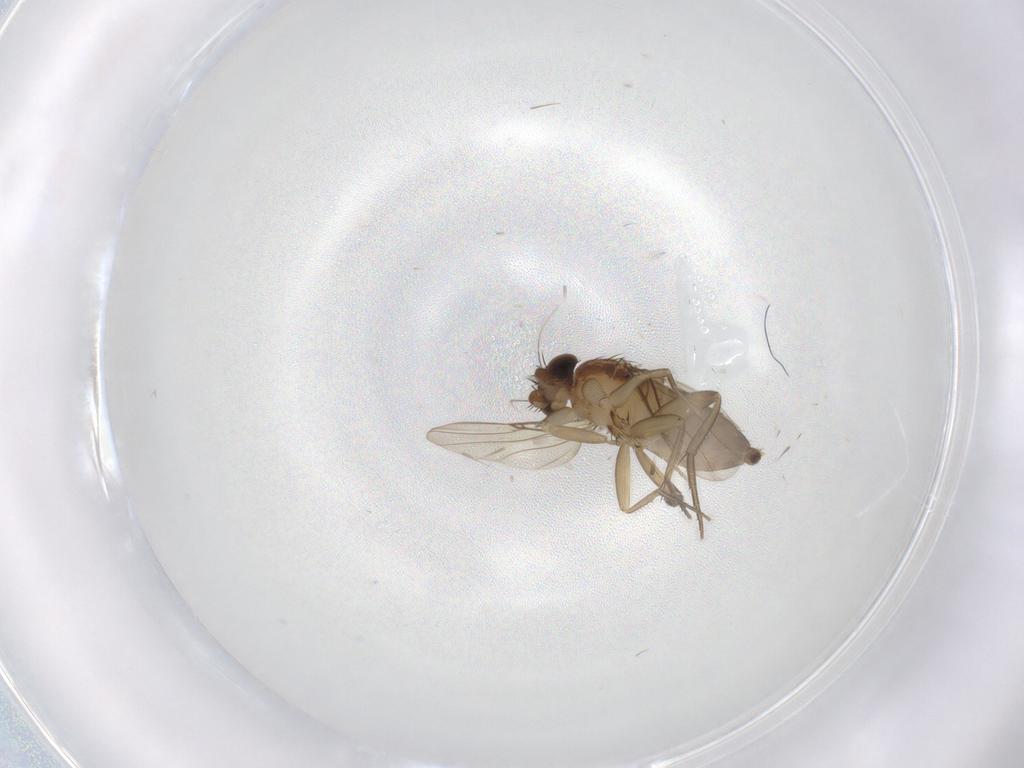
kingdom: Animalia
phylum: Arthropoda
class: Insecta
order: Diptera
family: Phoridae
